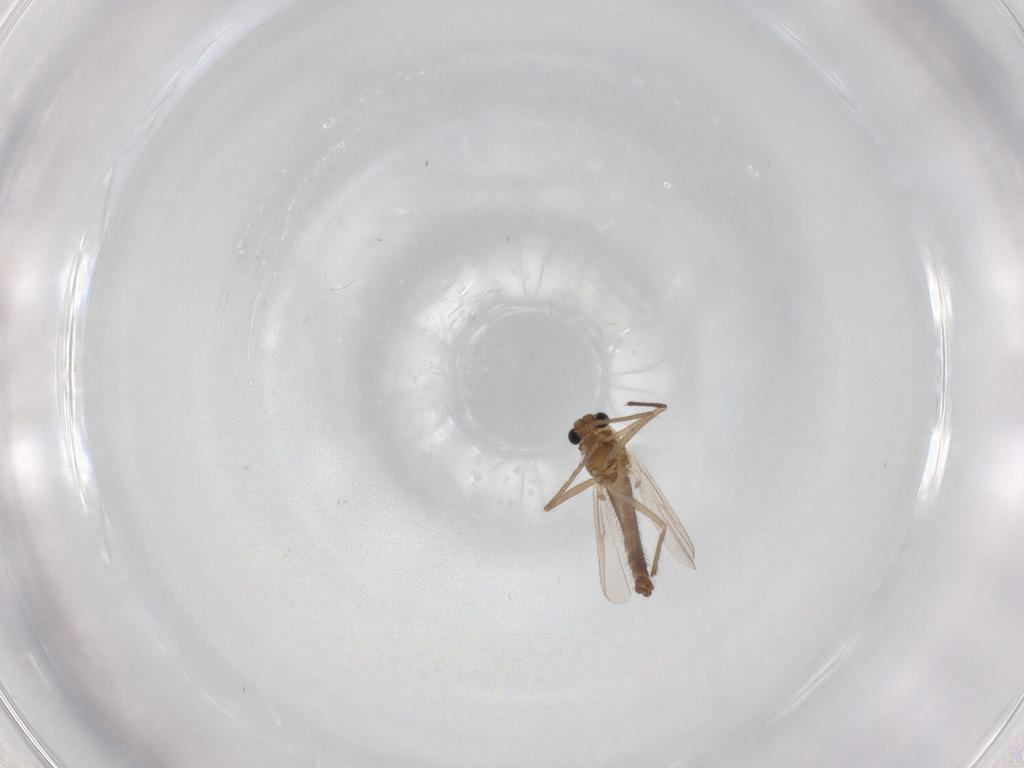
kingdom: Animalia
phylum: Arthropoda
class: Insecta
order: Diptera
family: Chironomidae
